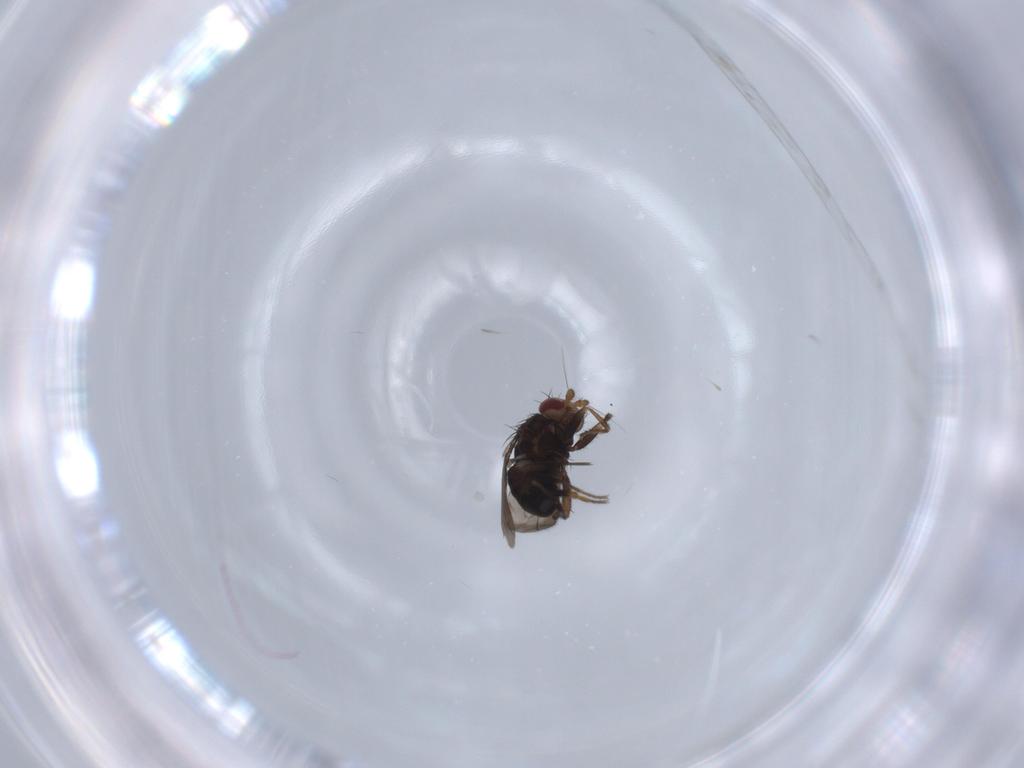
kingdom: Animalia
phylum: Arthropoda
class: Insecta
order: Diptera
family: Sphaeroceridae
